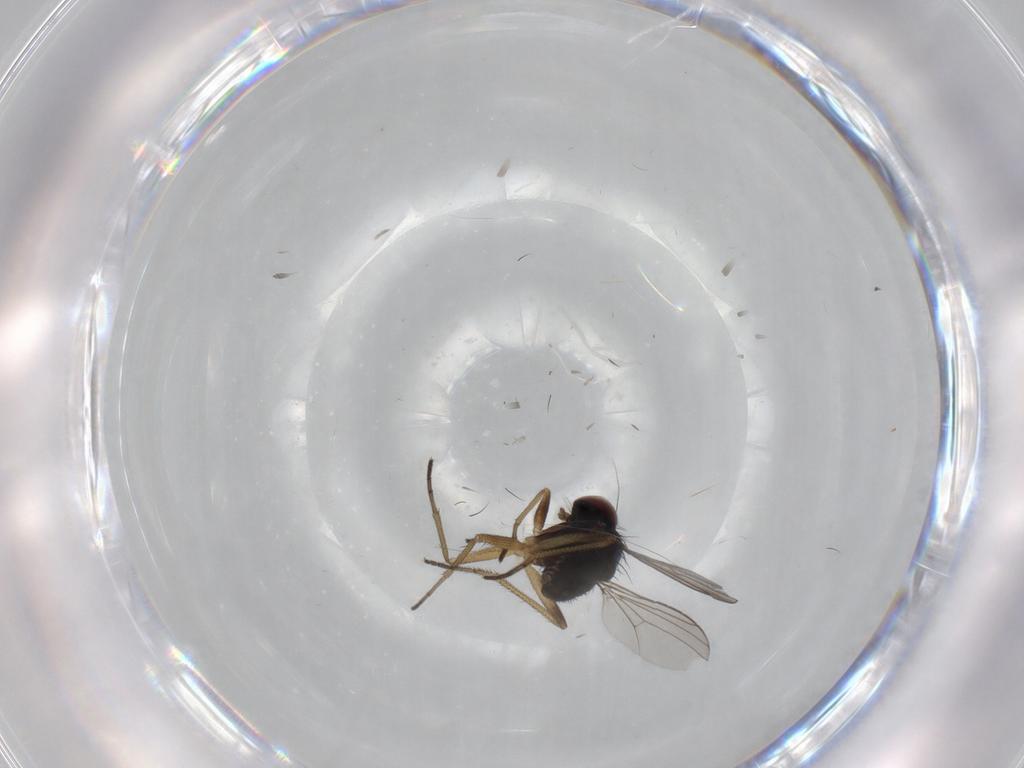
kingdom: Animalia
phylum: Arthropoda
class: Insecta
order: Diptera
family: Dolichopodidae
